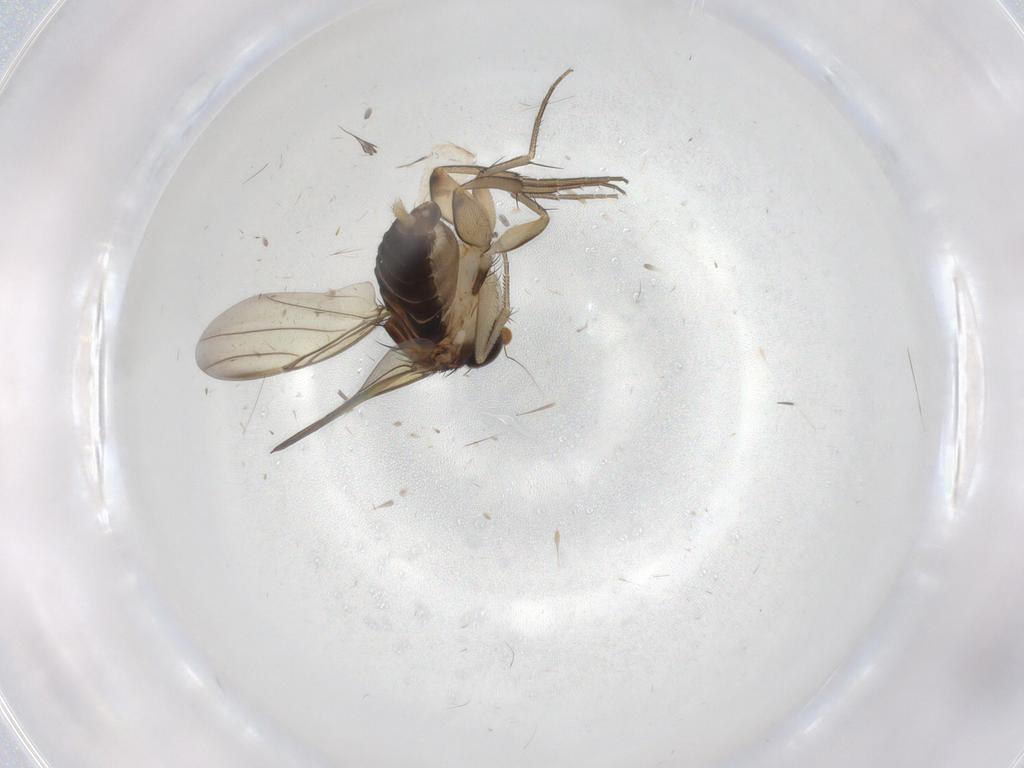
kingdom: Animalia
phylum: Arthropoda
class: Insecta
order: Diptera
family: Phoridae
